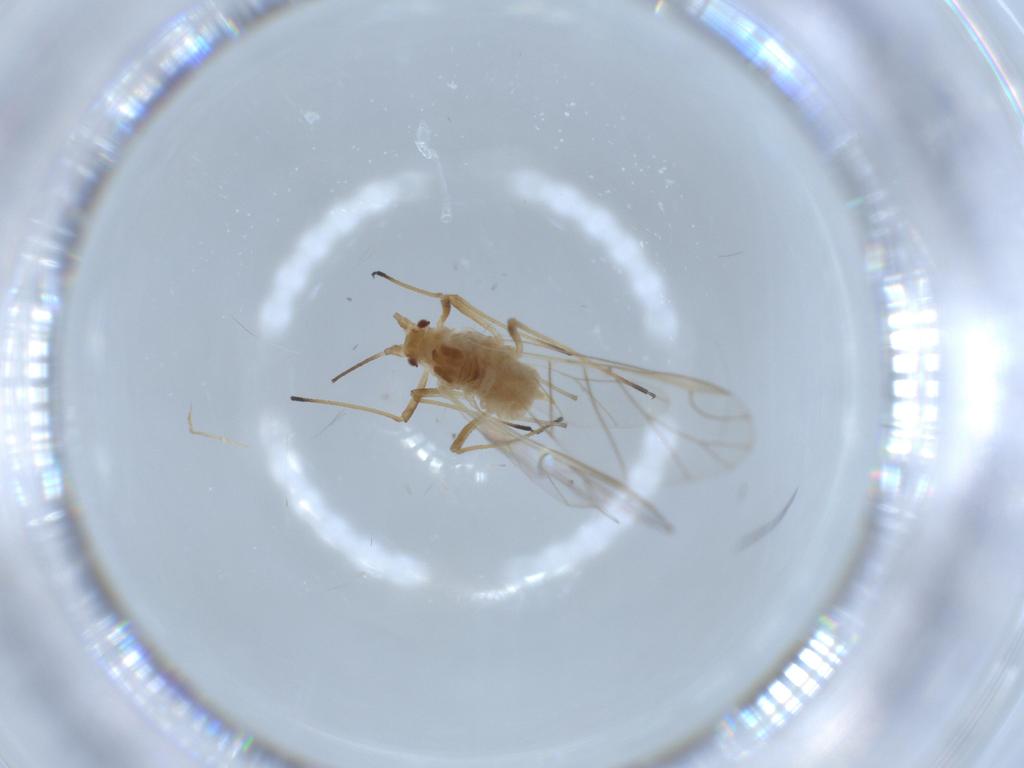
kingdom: Animalia
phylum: Arthropoda
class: Insecta
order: Hemiptera
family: Aphididae
